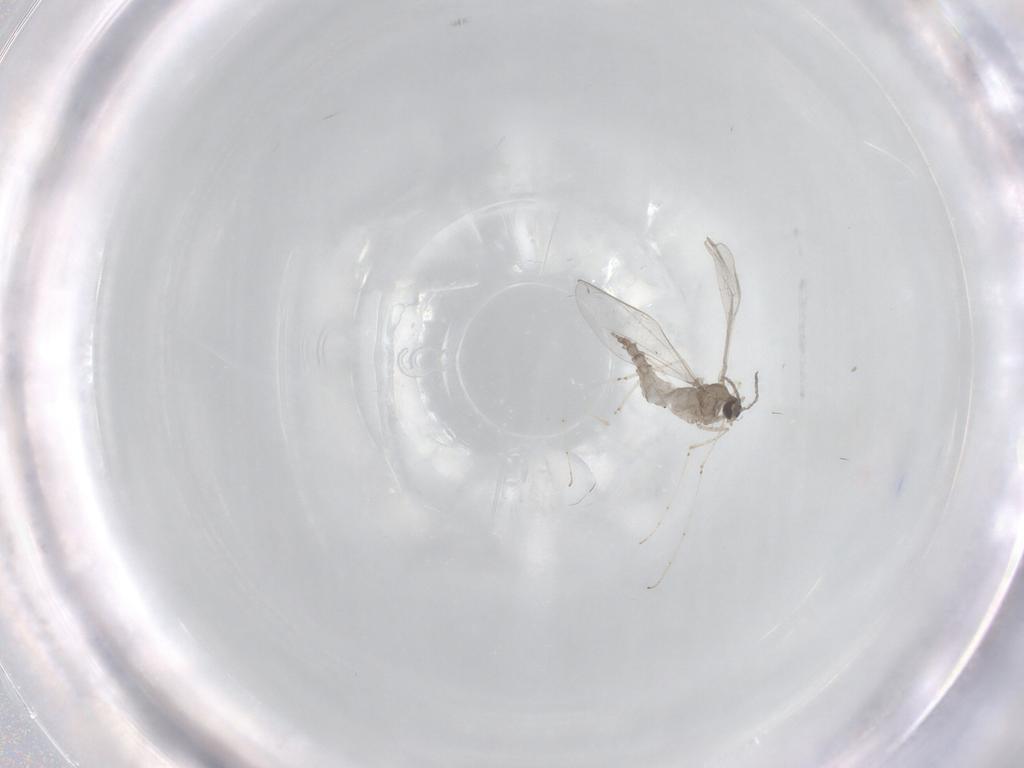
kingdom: Animalia
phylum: Arthropoda
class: Insecta
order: Diptera
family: Cecidomyiidae
